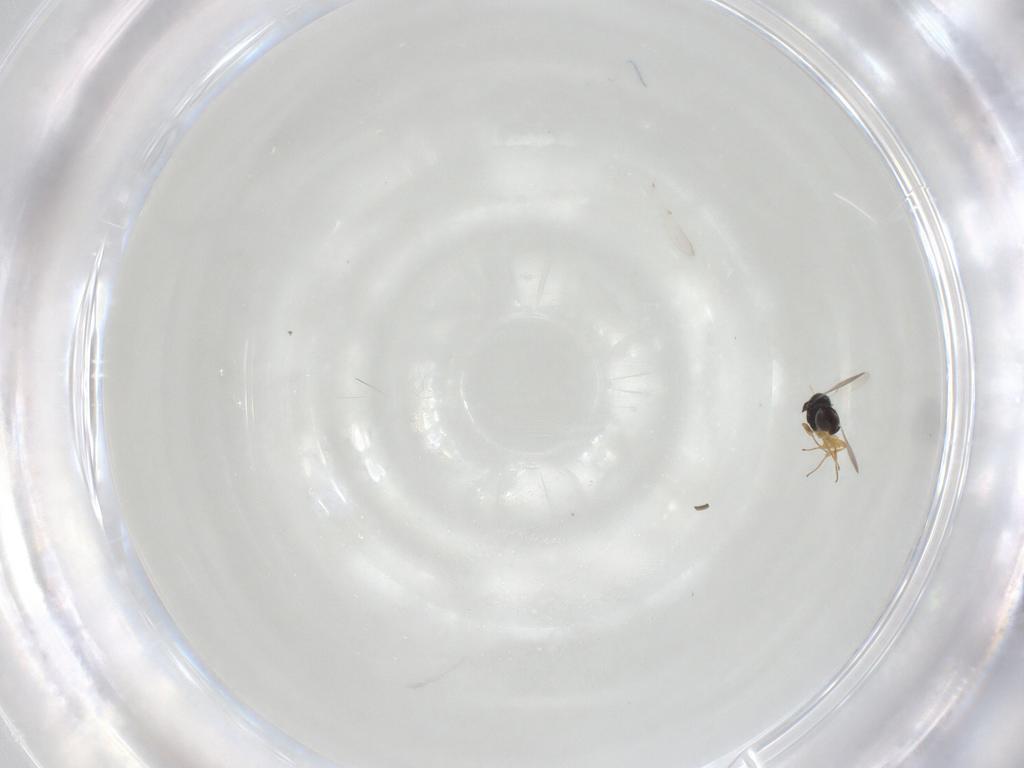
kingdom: Animalia
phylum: Arthropoda
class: Insecta
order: Hymenoptera
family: Scelionidae
